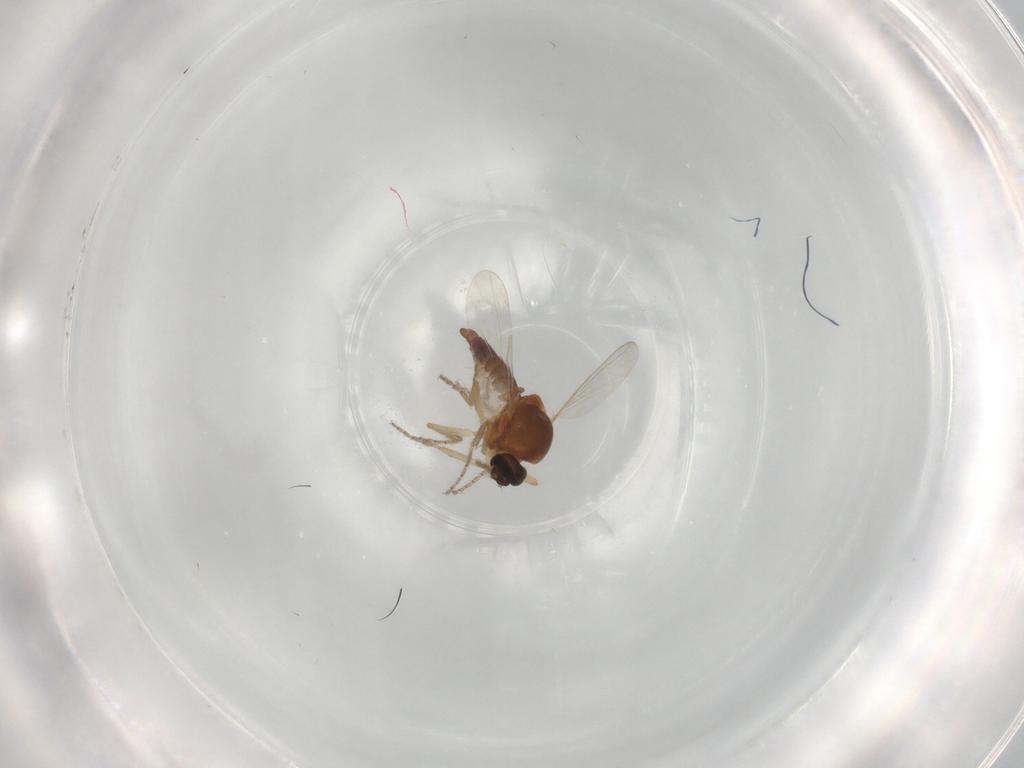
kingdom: Animalia
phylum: Arthropoda
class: Insecta
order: Diptera
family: Ceratopogonidae
